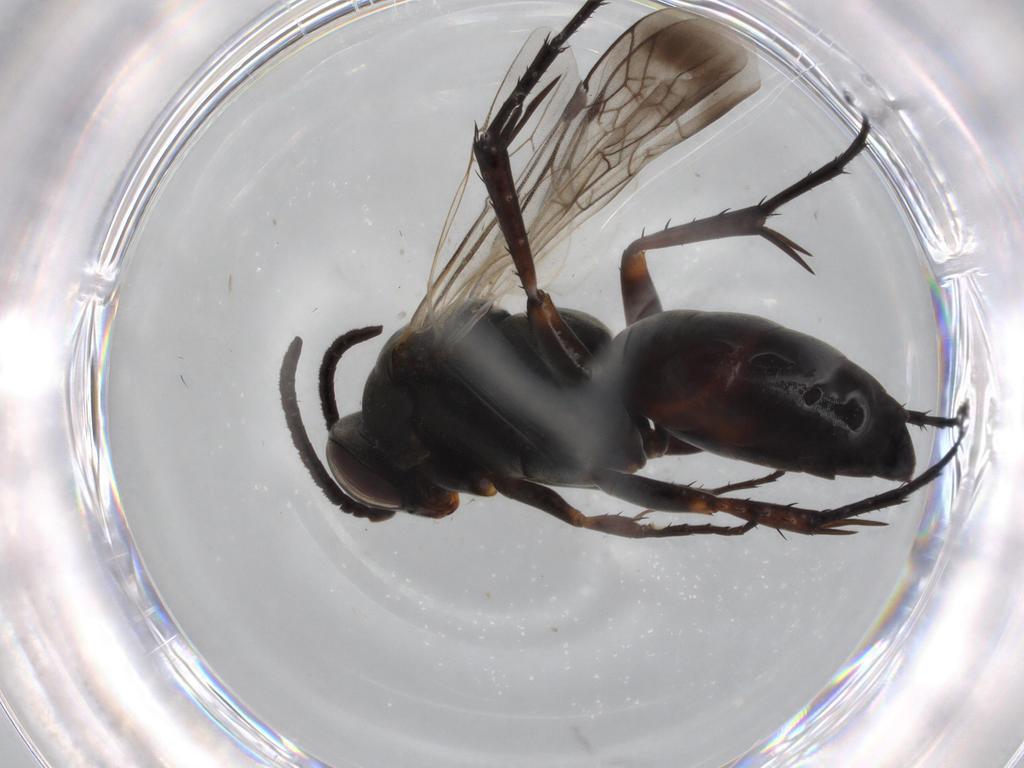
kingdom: Animalia
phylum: Arthropoda
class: Insecta
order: Hymenoptera
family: Pompilidae
